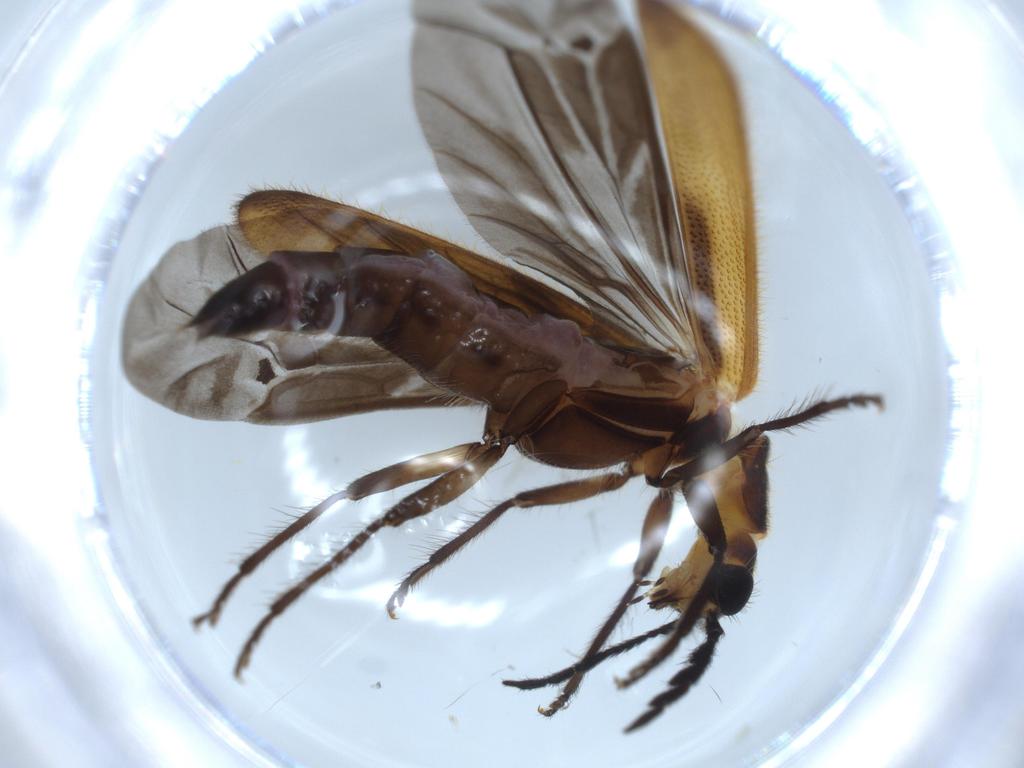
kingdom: Animalia
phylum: Arthropoda
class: Insecta
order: Coleoptera
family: Cleridae
